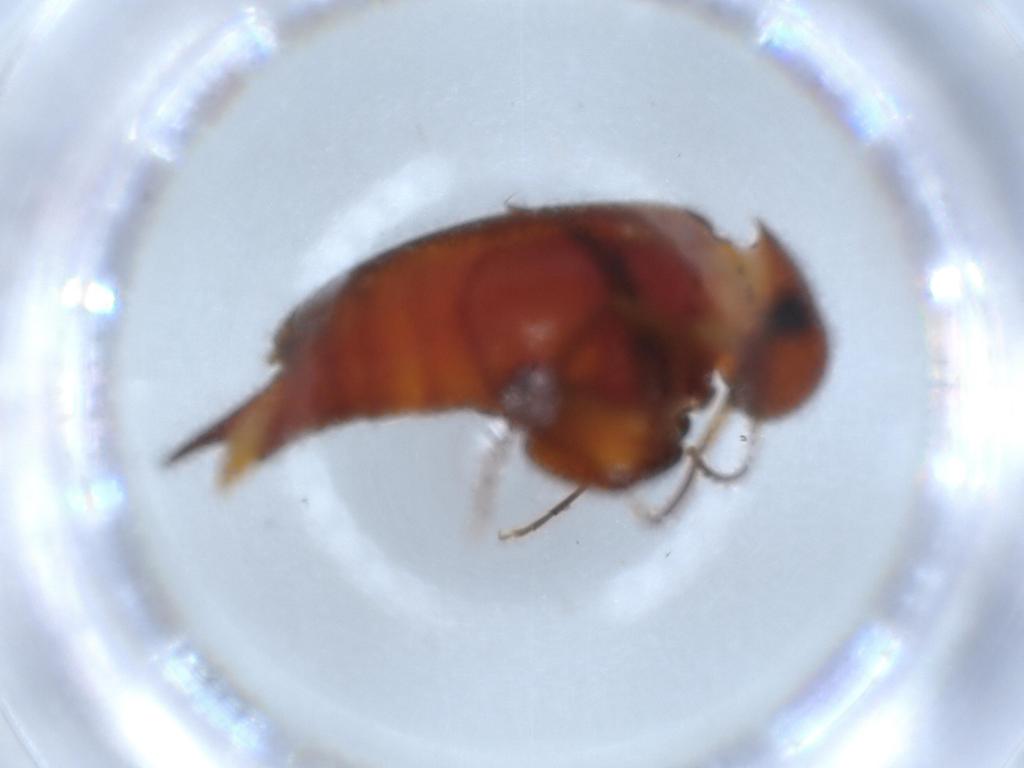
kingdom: Animalia
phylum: Arthropoda
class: Insecta
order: Coleoptera
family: Mordellidae
